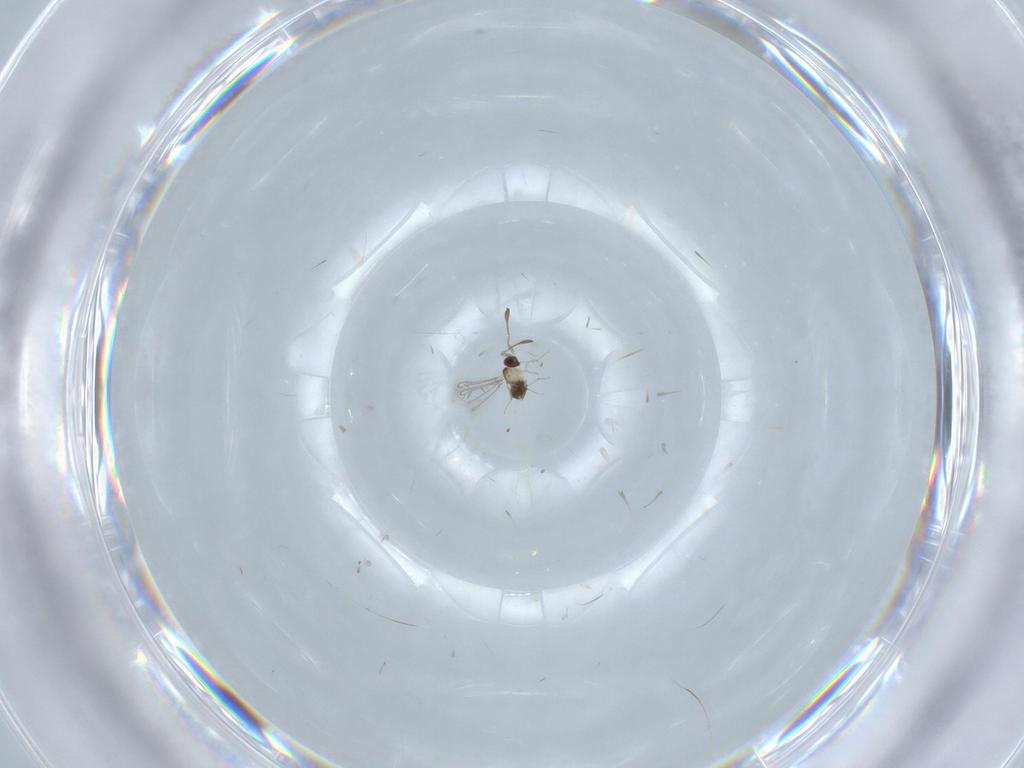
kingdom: Animalia
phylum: Arthropoda
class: Insecta
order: Hymenoptera
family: Mymaridae
